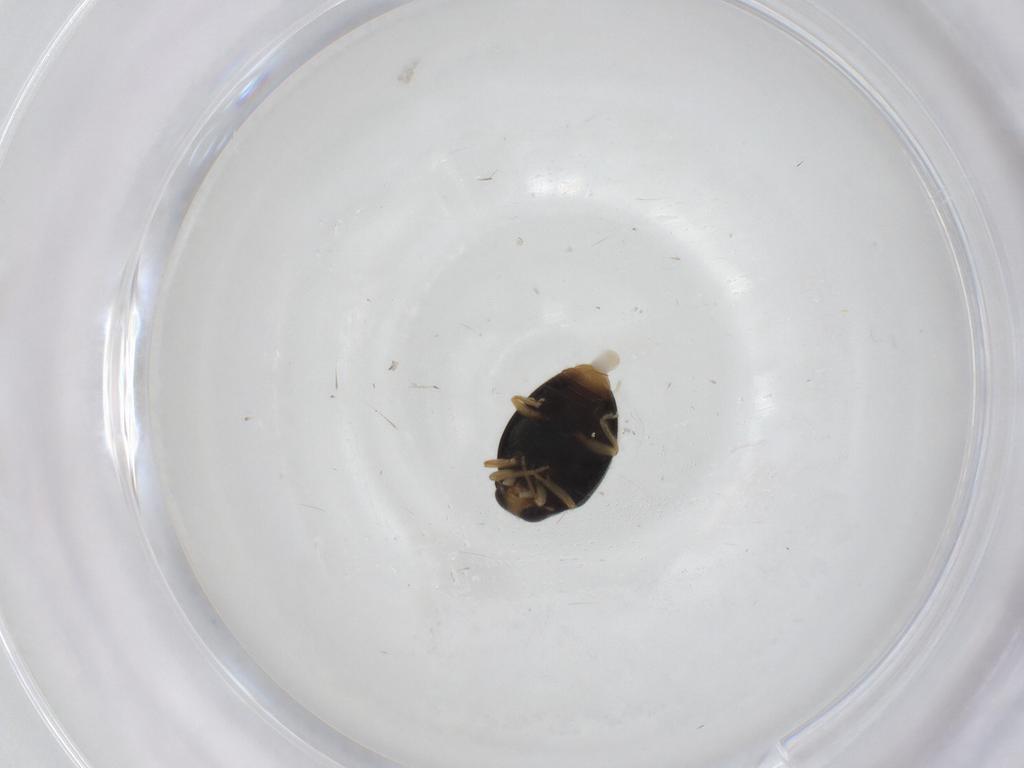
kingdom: Animalia
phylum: Arthropoda
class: Insecta
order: Coleoptera
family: Coccinellidae
